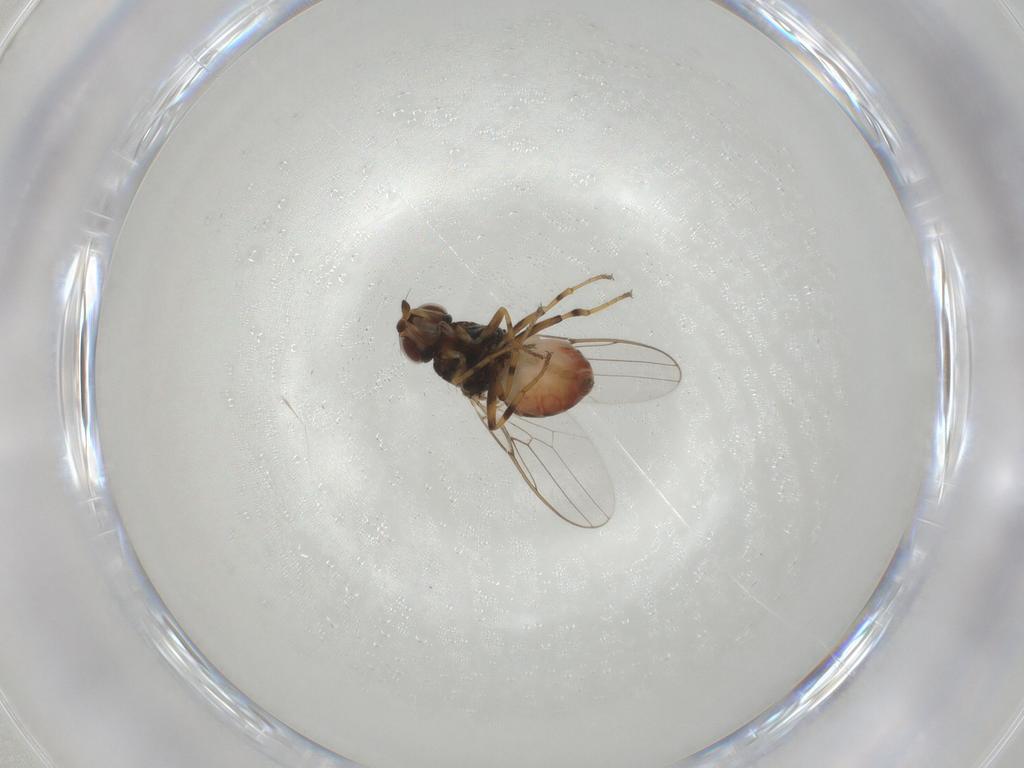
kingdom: Animalia
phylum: Arthropoda
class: Insecta
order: Diptera
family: Chloropidae
